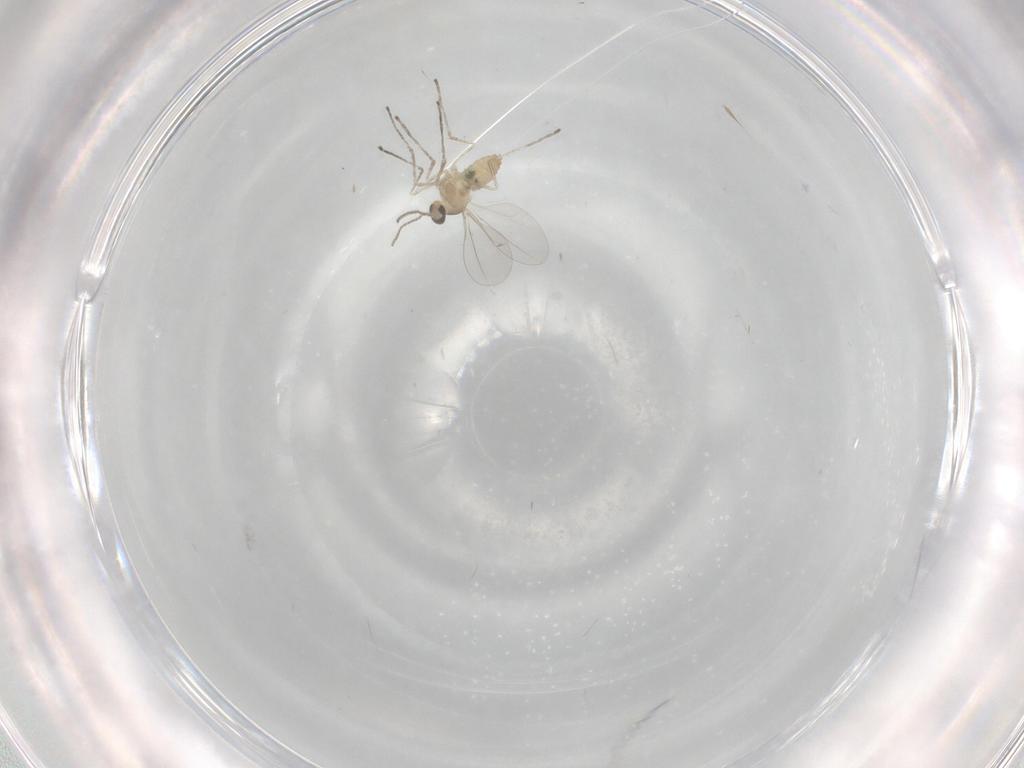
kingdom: Animalia
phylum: Arthropoda
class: Insecta
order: Diptera
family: Cecidomyiidae
